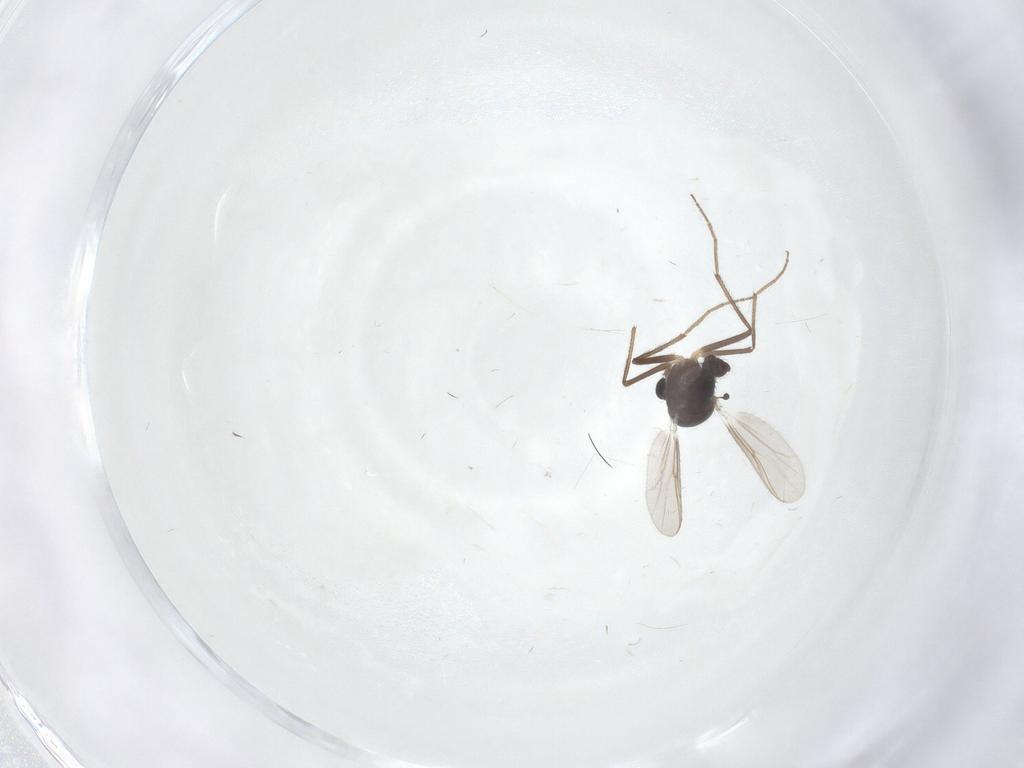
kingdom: Animalia
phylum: Arthropoda
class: Insecta
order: Diptera
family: Chironomidae
